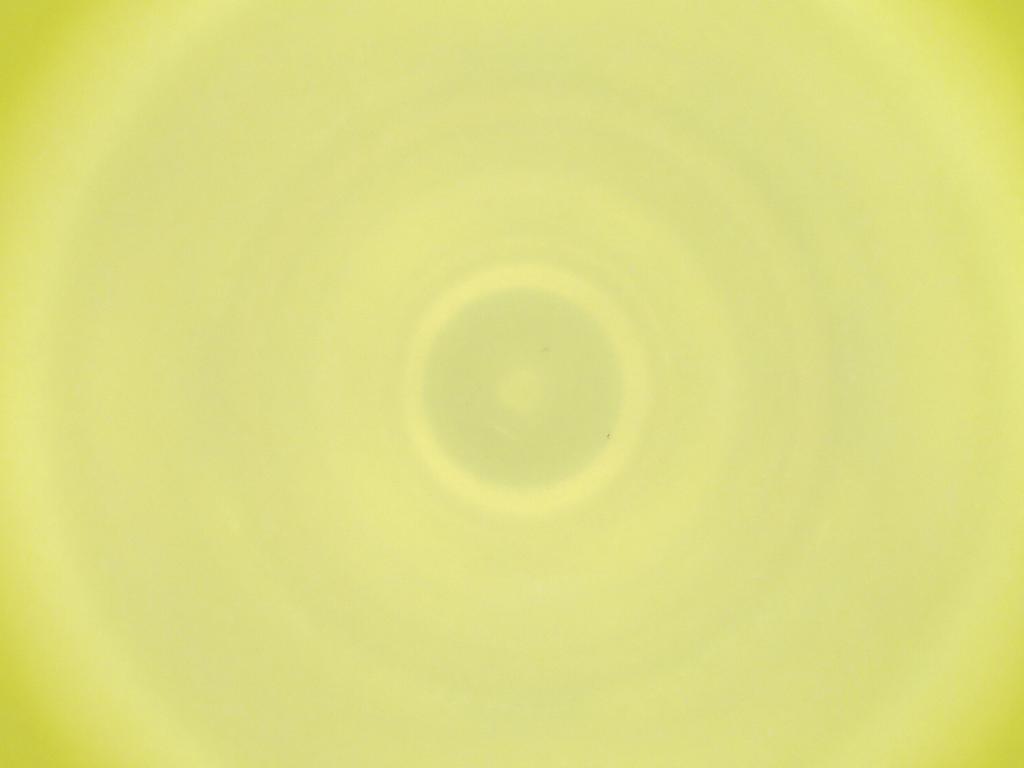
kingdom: Animalia
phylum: Arthropoda
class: Insecta
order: Diptera
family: Cecidomyiidae
